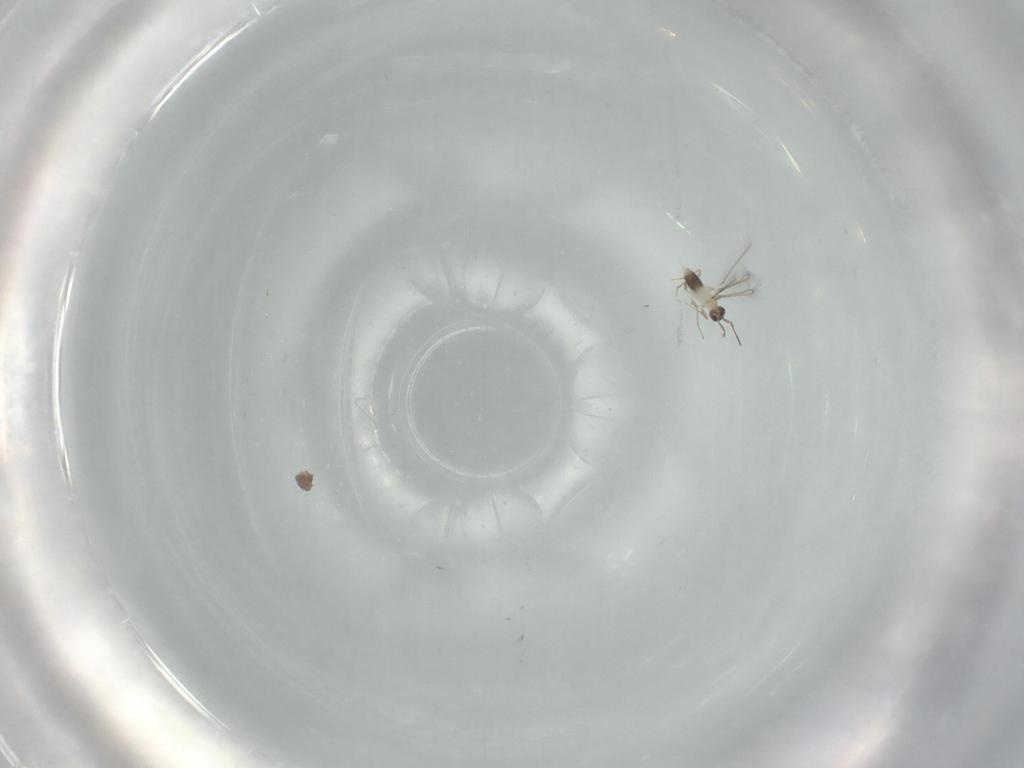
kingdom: Animalia
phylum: Arthropoda
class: Insecta
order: Hymenoptera
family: Mymaridae
